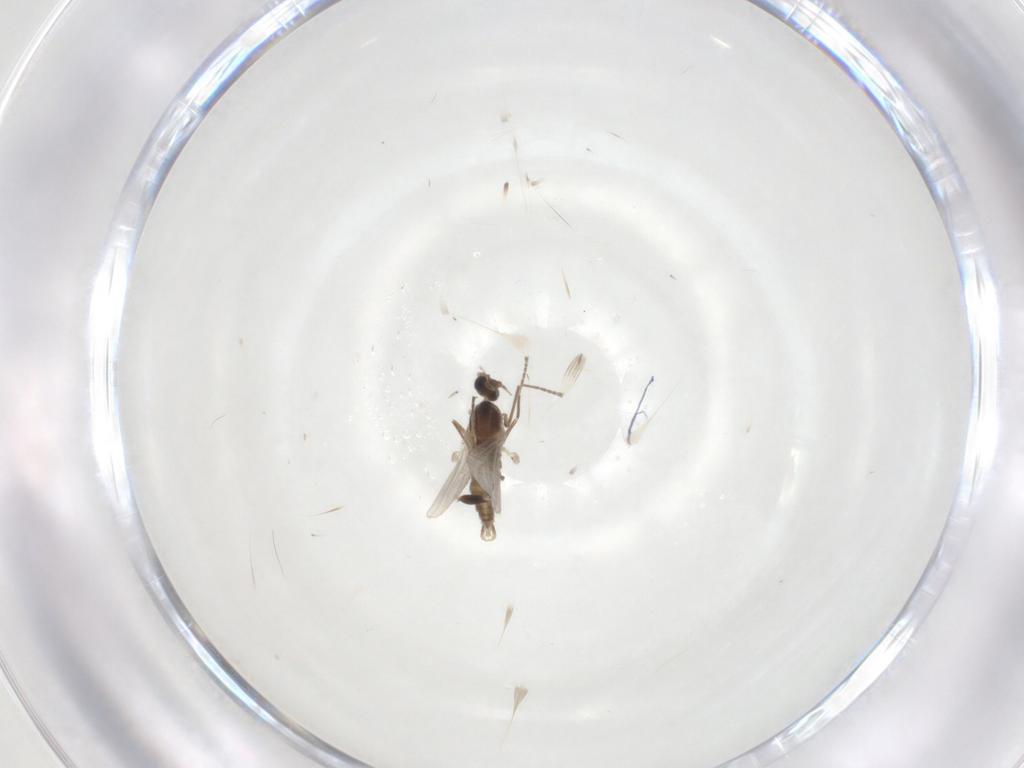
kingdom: Animalia
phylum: Arthropoda
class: Insecta
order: Diptera
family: Cecidomyiidae
